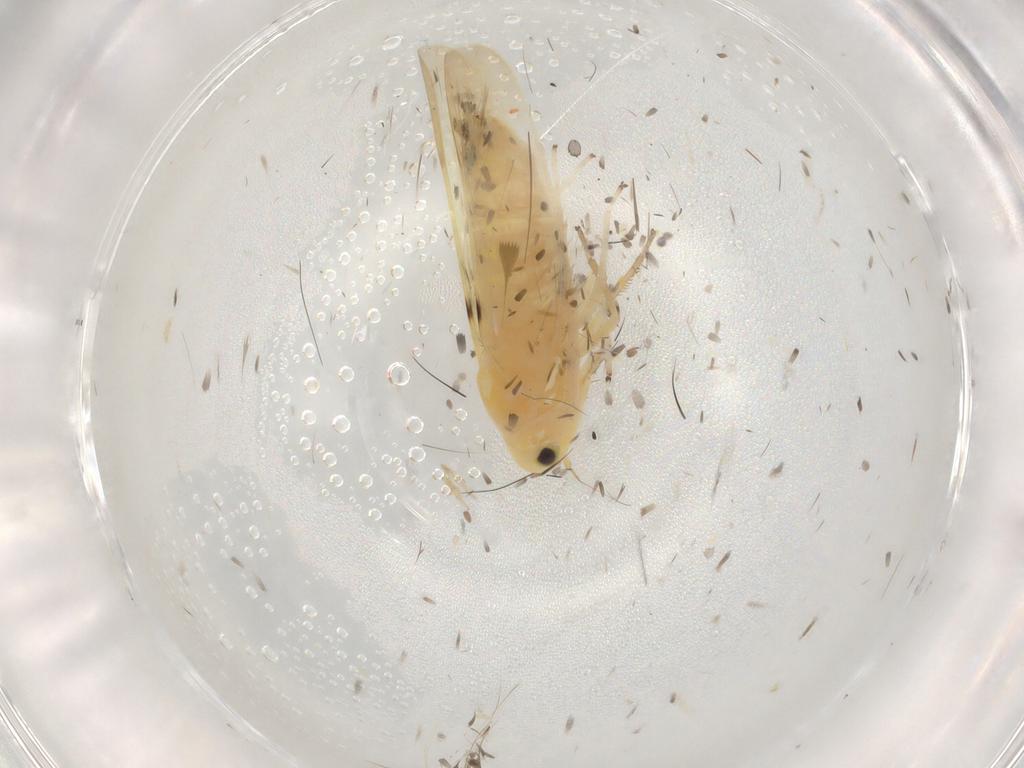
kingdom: Animalia
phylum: Arthropoda
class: Insecta
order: Hemiptera
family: Cicadellidae
